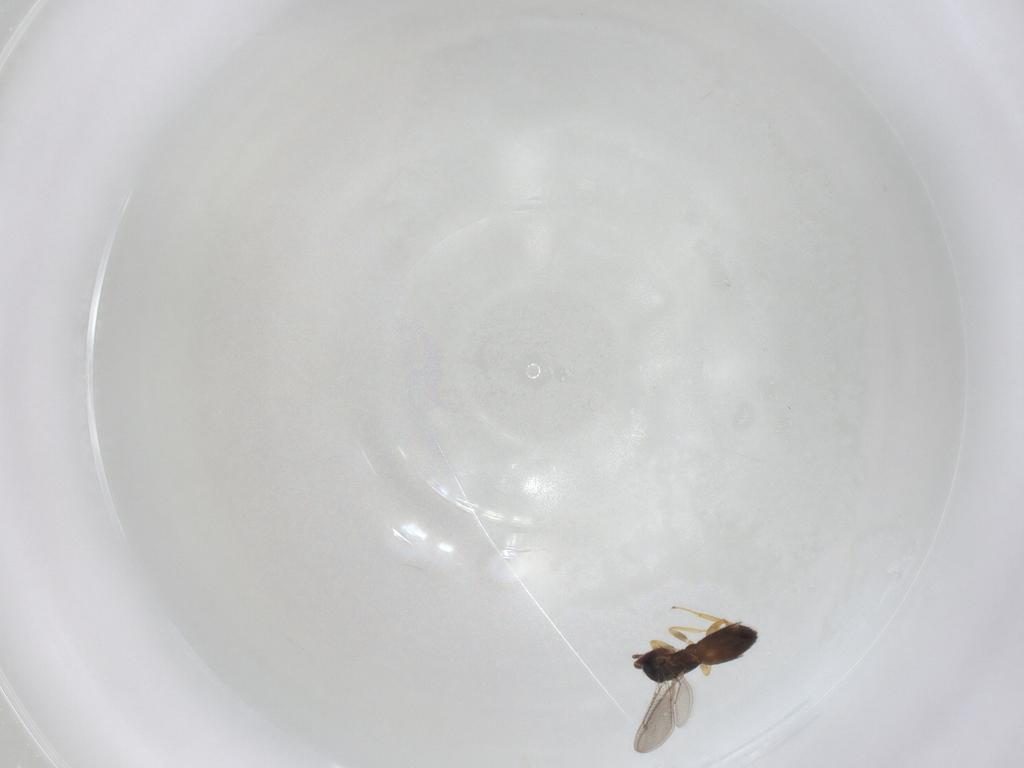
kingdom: Animalia
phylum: Arthropoda
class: Insecta
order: Hymenoptera
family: Eulophidae
